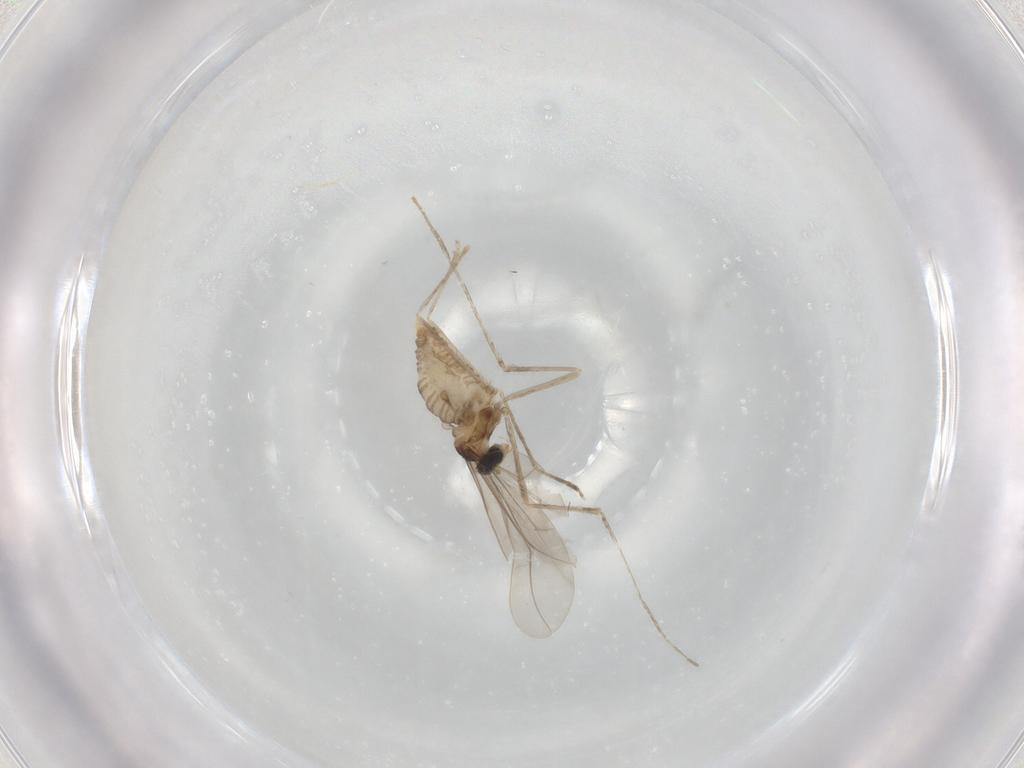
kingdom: Animalia
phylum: Arthropoda
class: Insecta
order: Diptera
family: Cecidomyiidae
